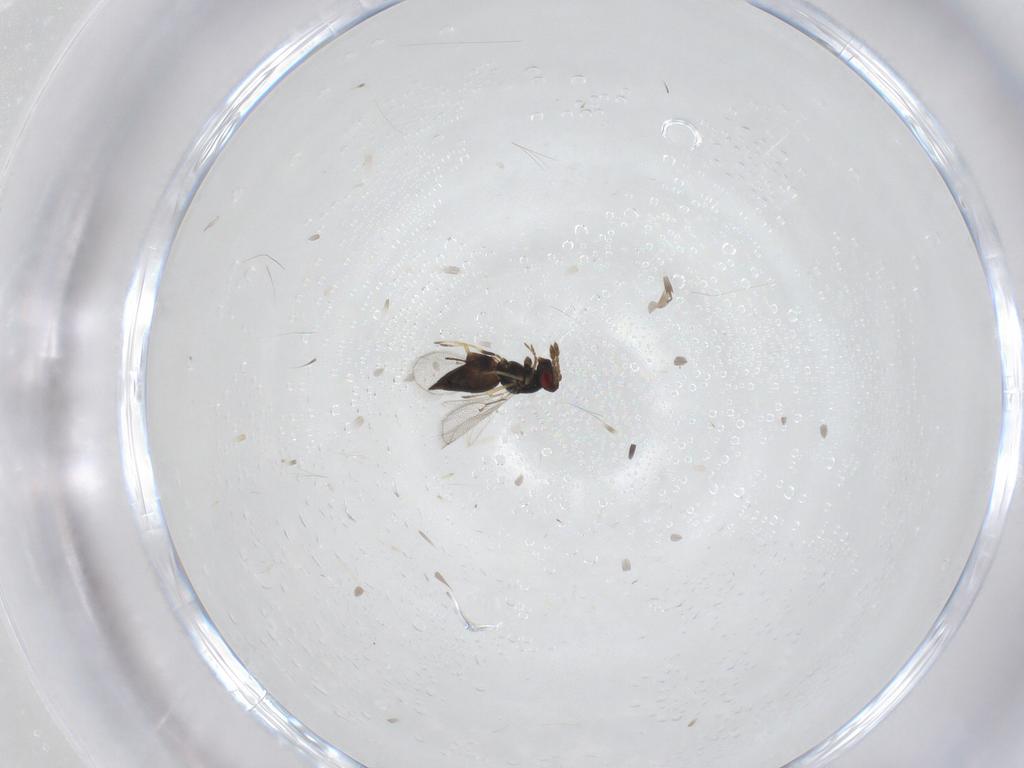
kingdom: Animalia
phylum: Arthropoda
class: Insecta
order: Hymenoptera
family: Eulophidae
